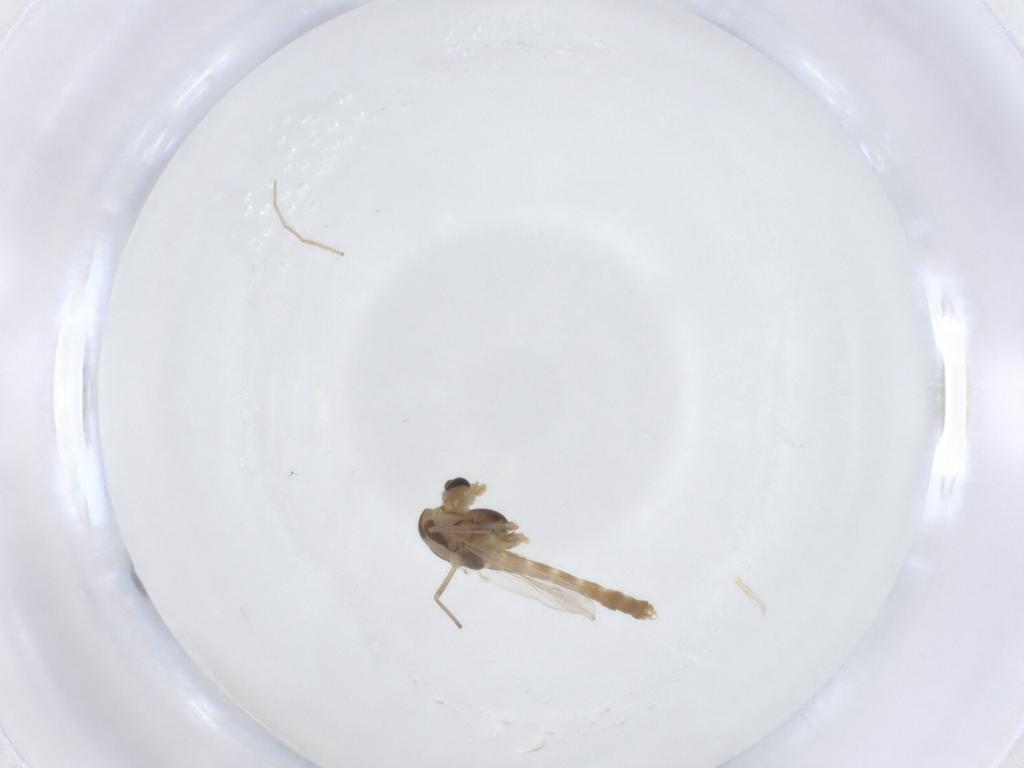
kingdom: Animalia
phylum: Arthropoda
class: Insecta
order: Diptera
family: Chironomidae
